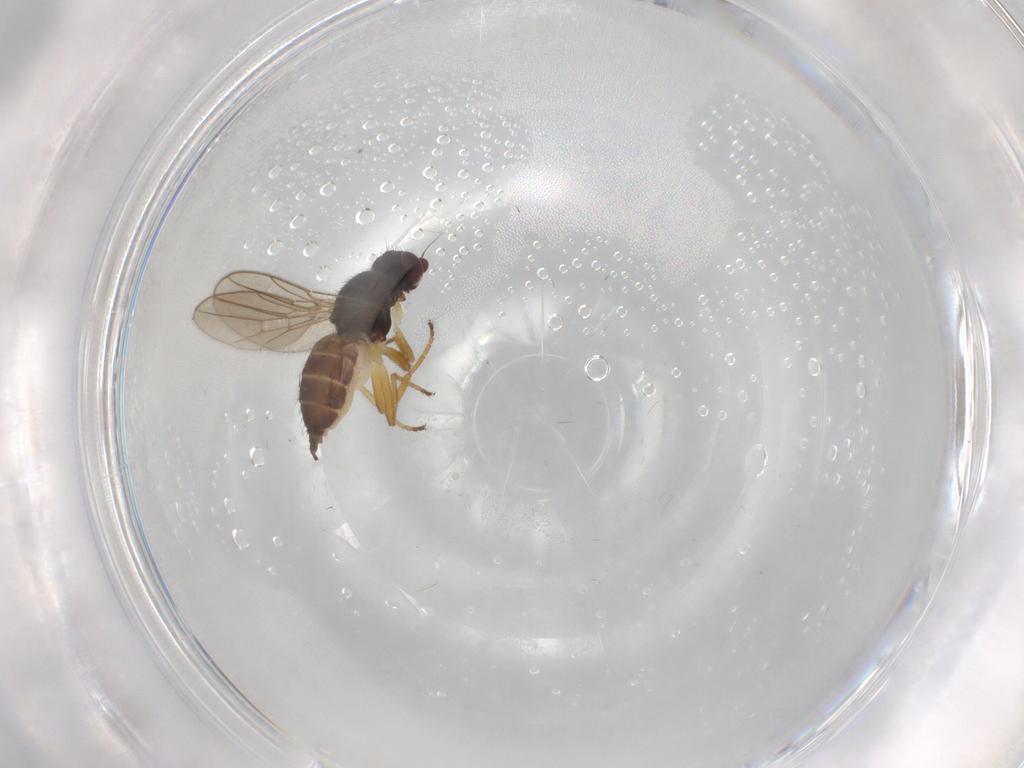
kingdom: Animalia
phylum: Arthropoda
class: Insecta
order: Diptera
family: Chloropidae
